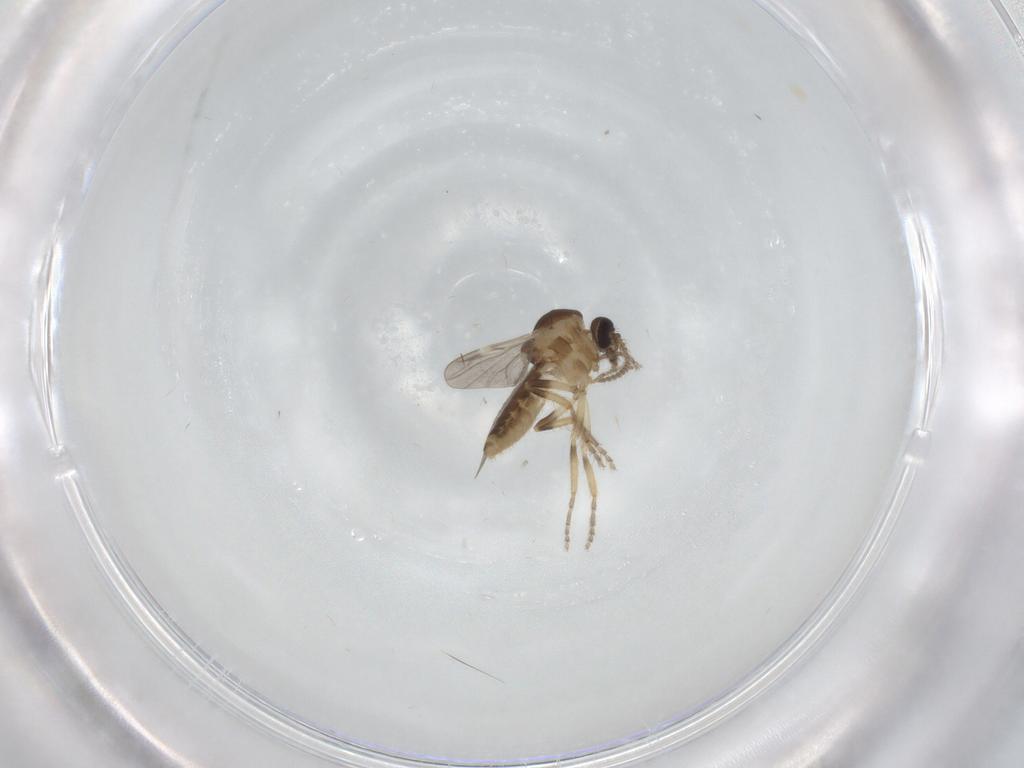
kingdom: Animalia
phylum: Arthropoda
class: Insecta
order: Diptera
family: Ceratopogonidae
